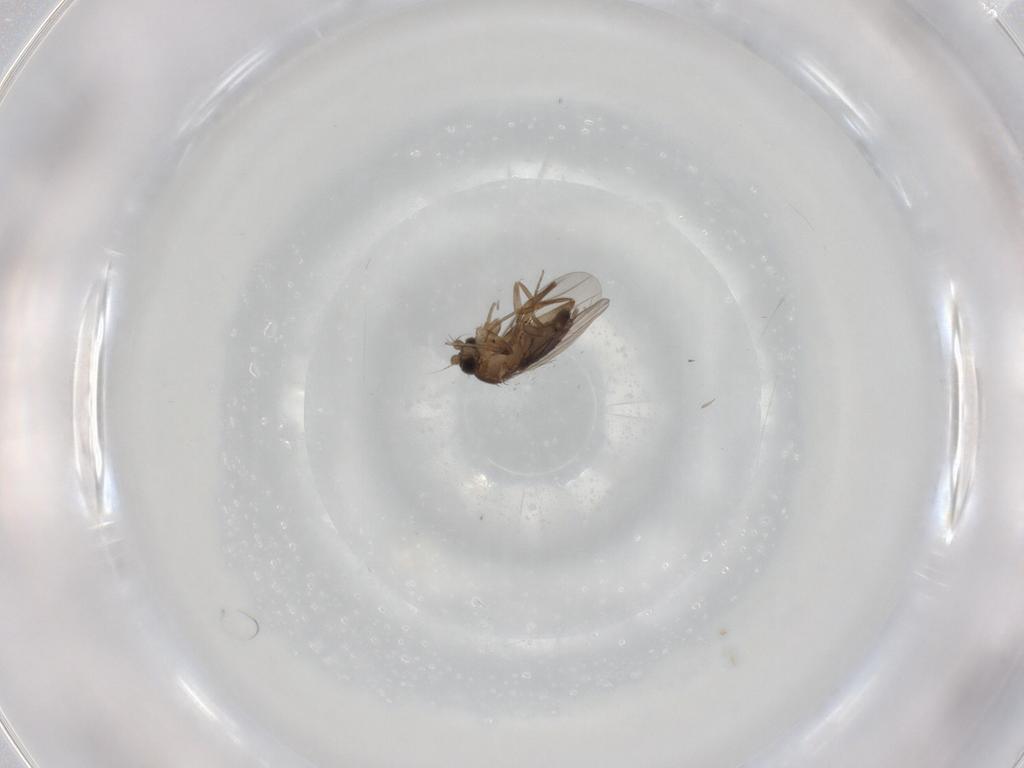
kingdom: Animalia
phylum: Arthropoda
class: Insecta
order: Diptera
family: Phoridae
